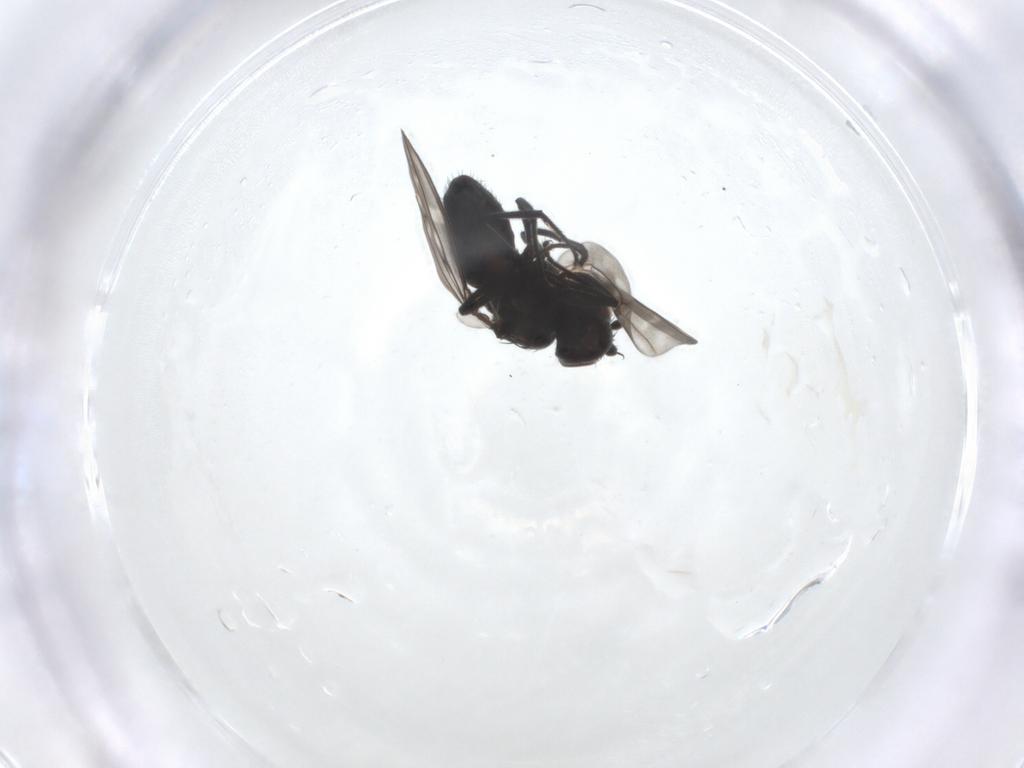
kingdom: Animalia
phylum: Arthropoda
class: Insecta
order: Diptera
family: Ephydridae
